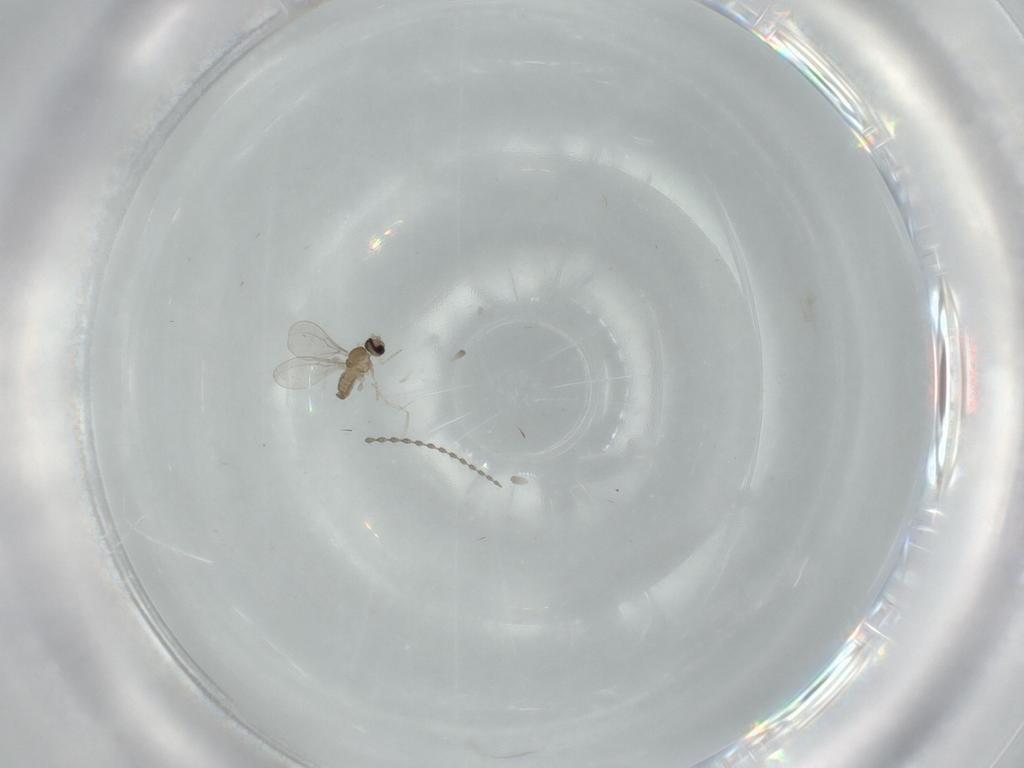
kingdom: Animalia
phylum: Arthropoda
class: Insecta
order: Diptera
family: Cecidomyiidae
